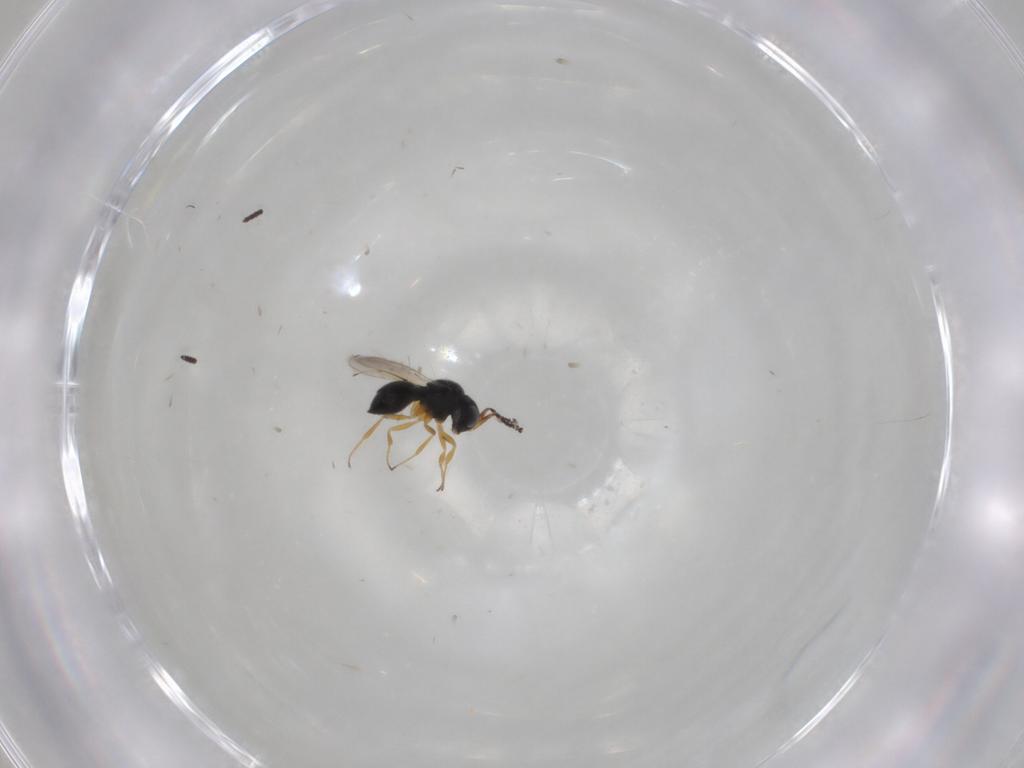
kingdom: Animalia
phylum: Arthropoda
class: Insecta
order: Hymenoptera
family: Scelionidae
